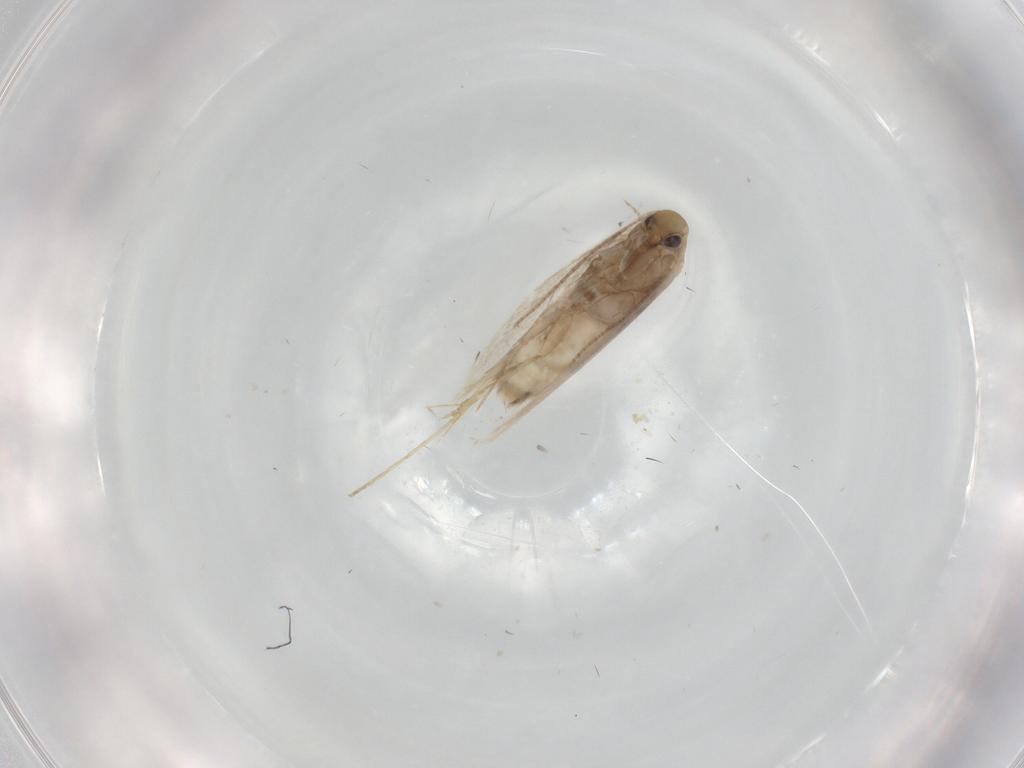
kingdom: Animalia
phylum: Arthropoda
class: Insecta
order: Lepidoptera
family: Gracillariidae
